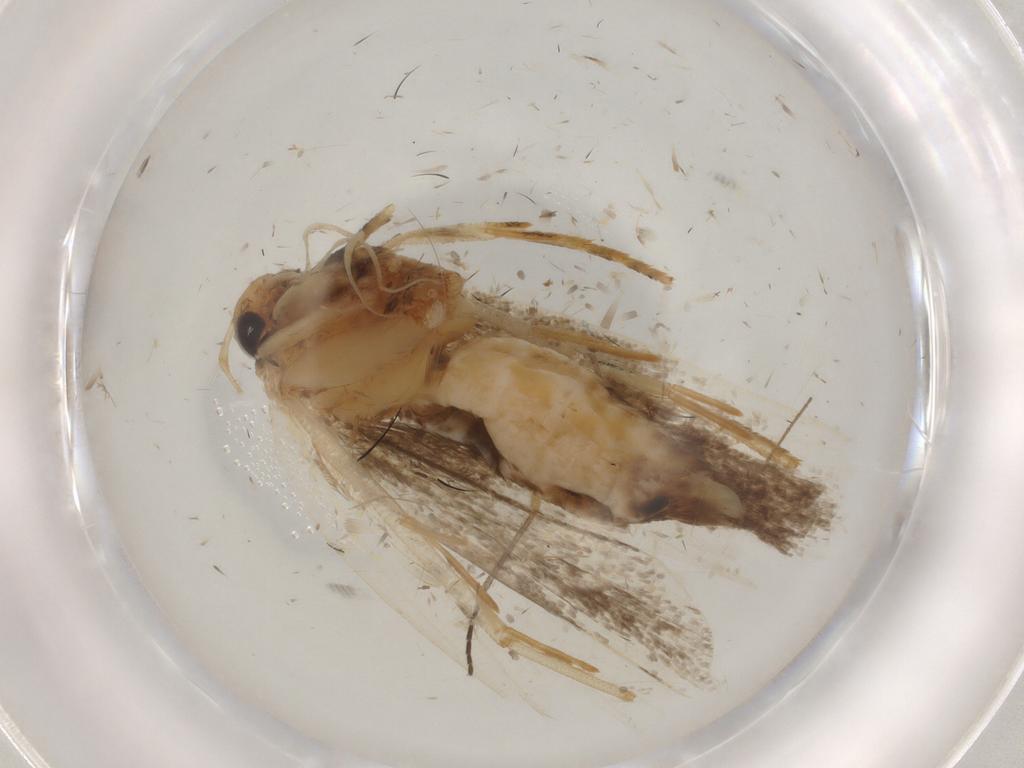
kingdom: Animalia
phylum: Arthropoda
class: Insecta
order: Lepidoptera
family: Gelechiidae
